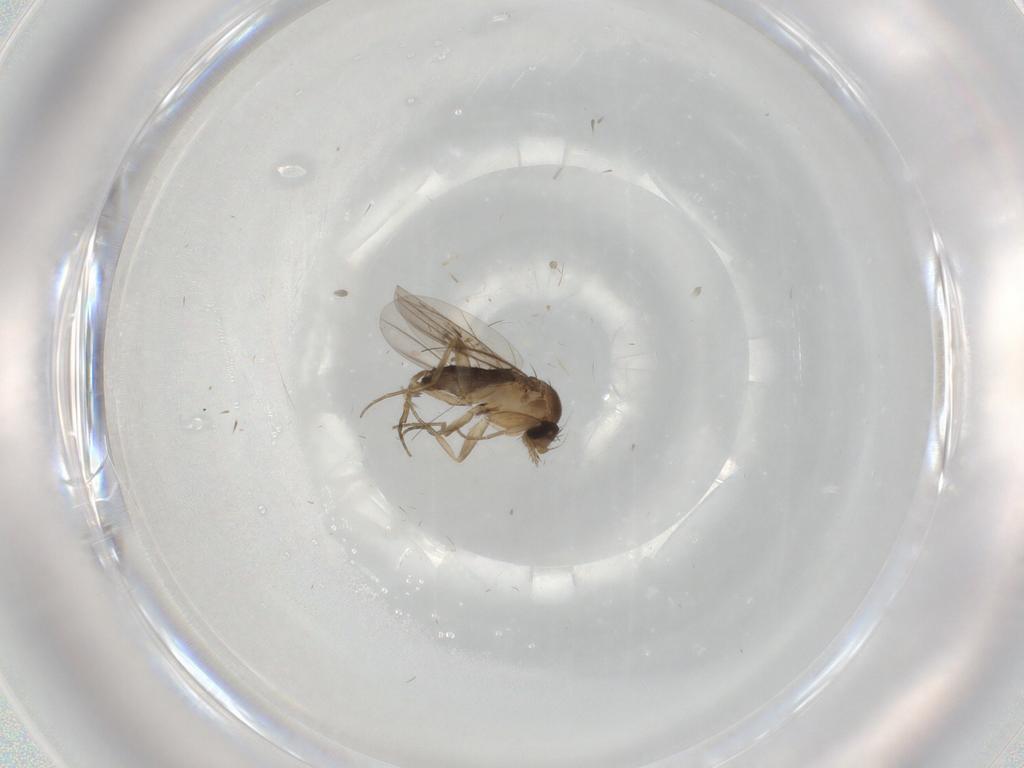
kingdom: Animalia
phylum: Arthropoda
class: Insecta
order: Diptera
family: Phoridae
